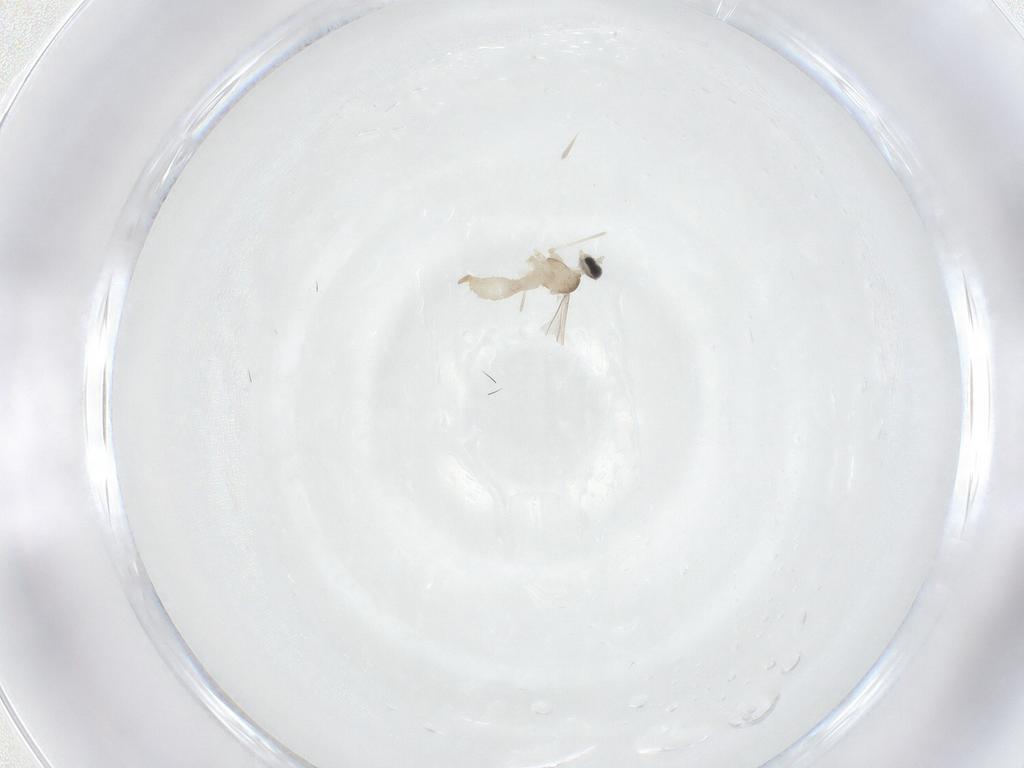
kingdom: Animalia
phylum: Arthropoda
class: Insecta
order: Diptera
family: Cecidomyiidae
